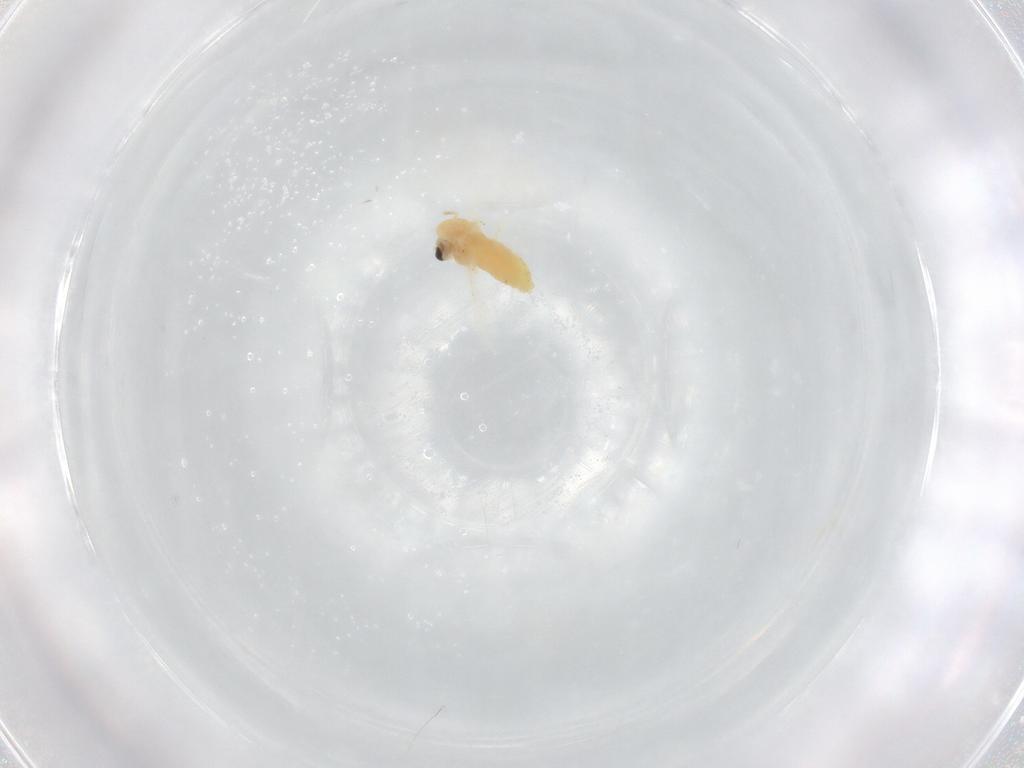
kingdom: Animalia
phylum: Arthropoda
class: Insecta
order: Diptera
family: Chironomidae
